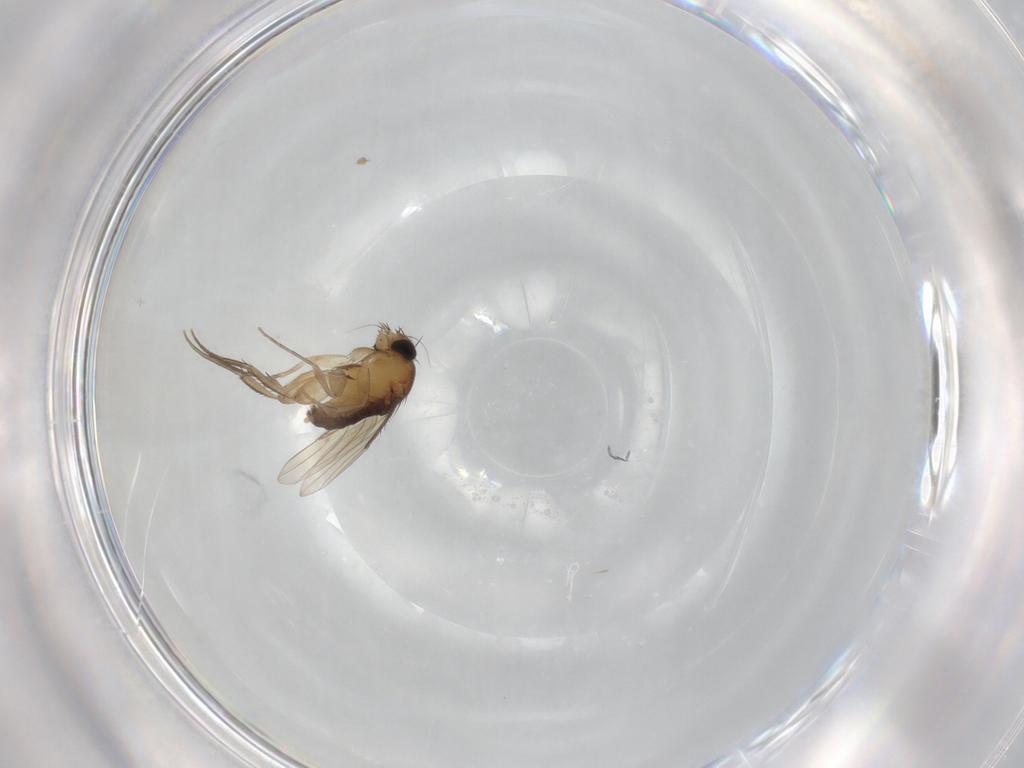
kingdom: Animalia
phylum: Arthropoda
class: Insecta
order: Diptera
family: Phoridae
